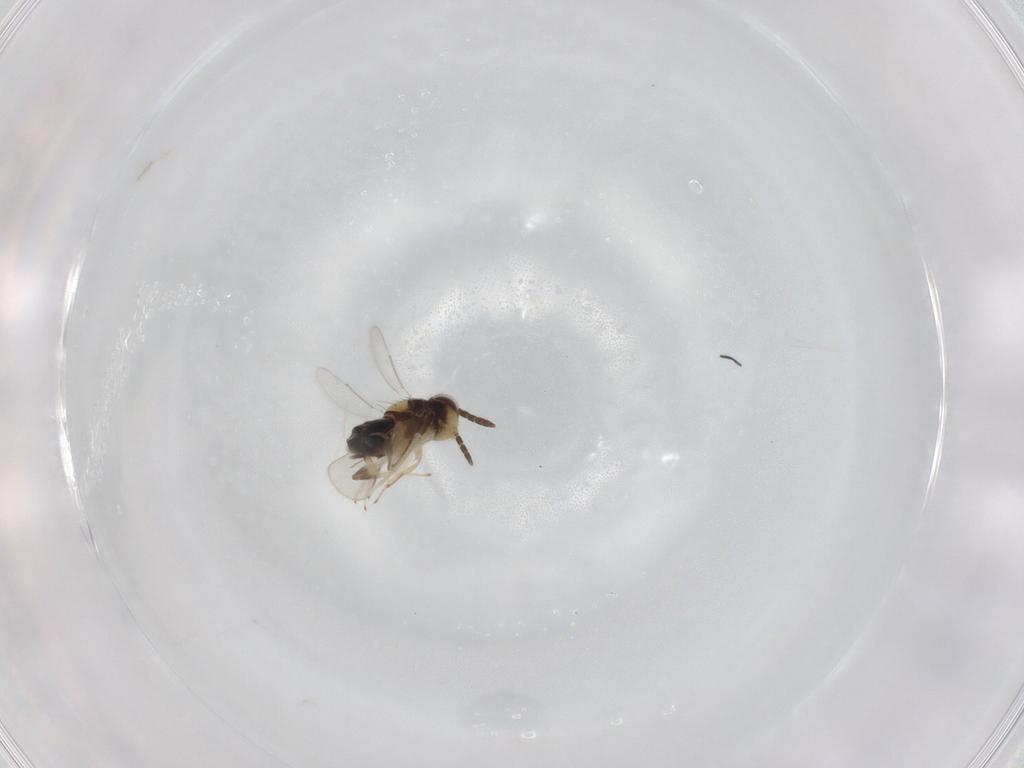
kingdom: Animalia
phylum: Arthropoda
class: Insecta
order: Hymenoptera
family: Aphelinidae
